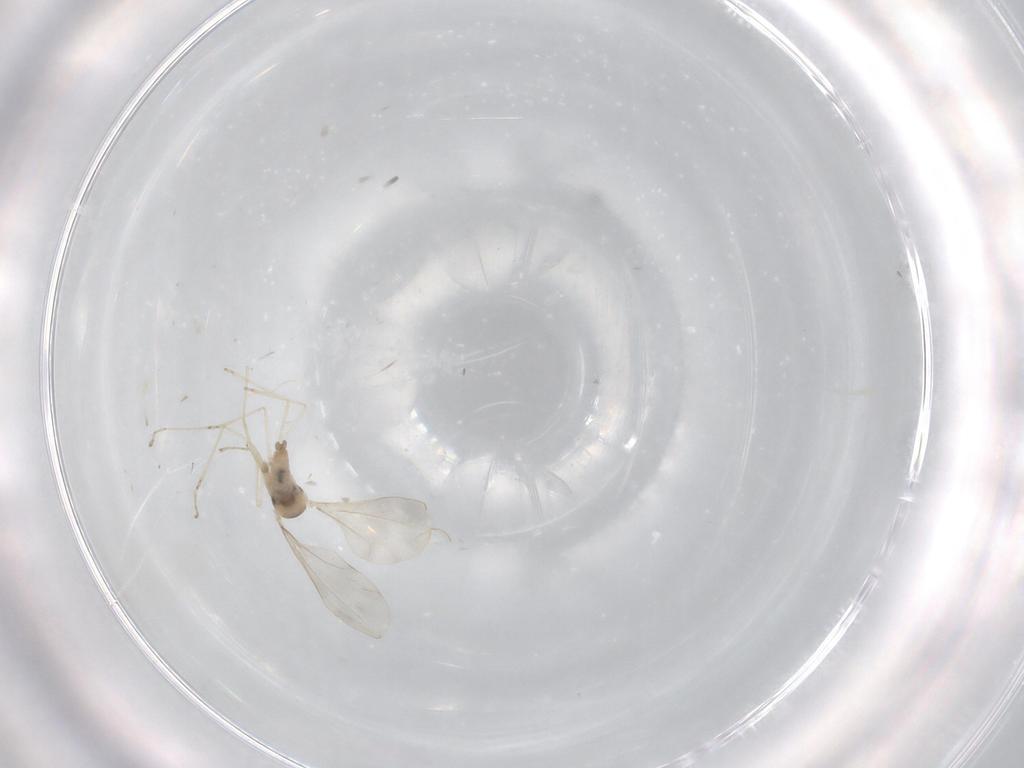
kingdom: Animalia
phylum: Arthropoda
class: Insecta
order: Diptera
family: Cecidomyiidae
